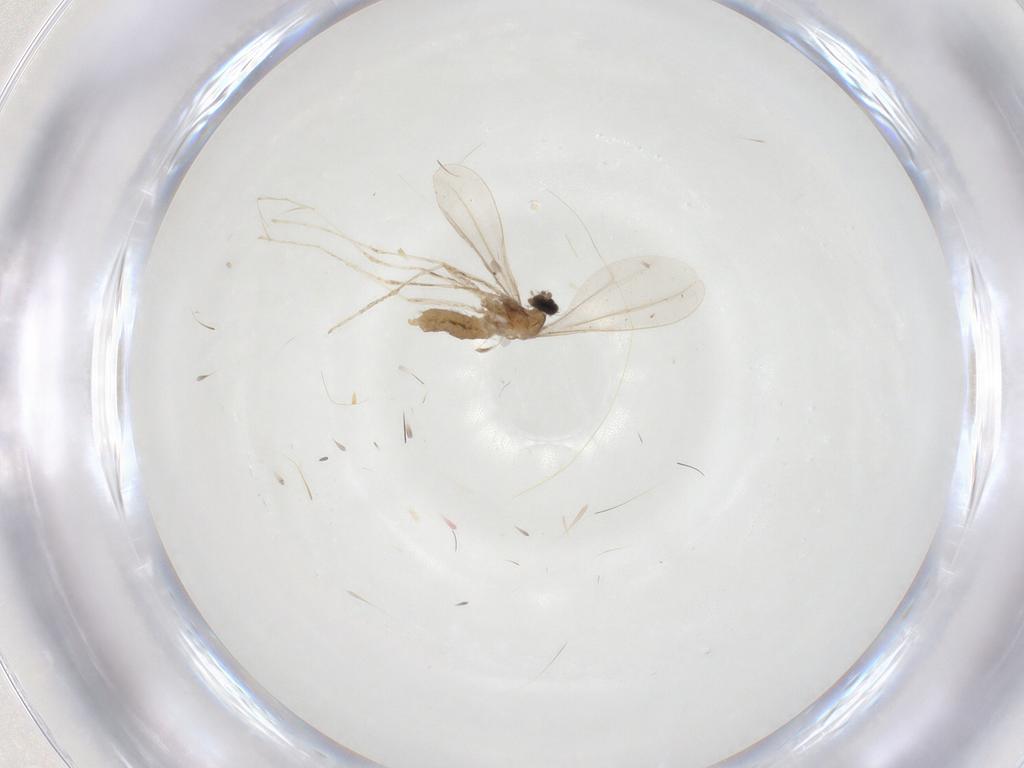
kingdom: Animalia
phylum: Arthropoda
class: Insecta
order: Diptera
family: Cecidomyiidae
